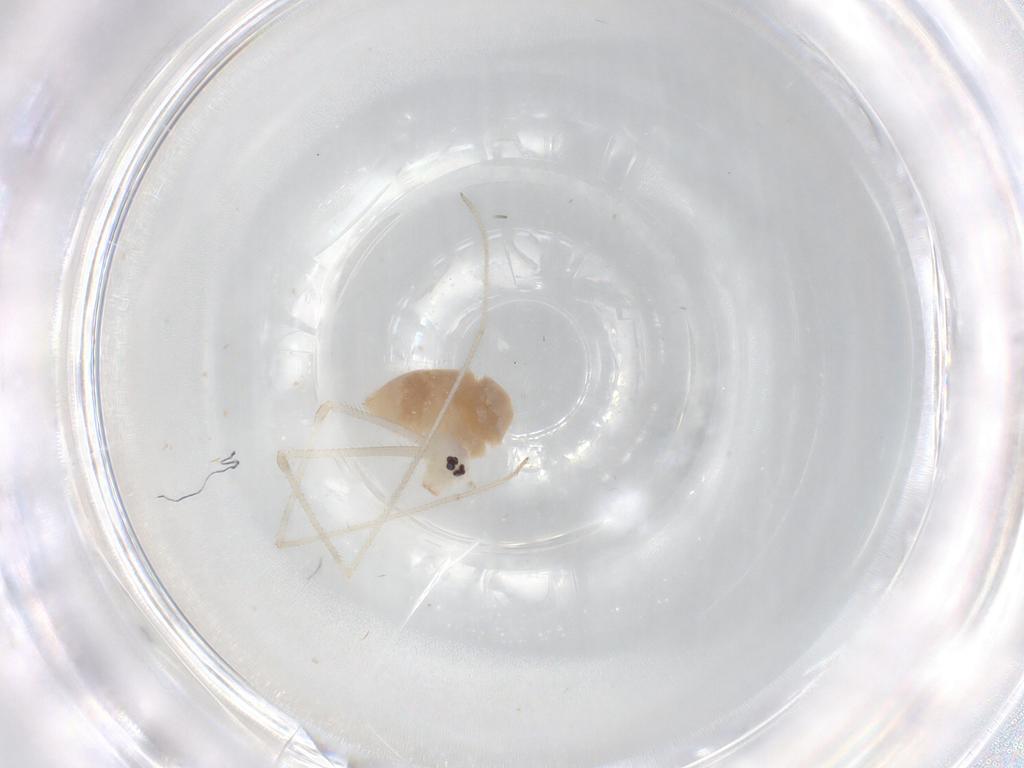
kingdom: Animalia
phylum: Arthropoda
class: Arachnida
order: Araneae
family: Pholcidae
